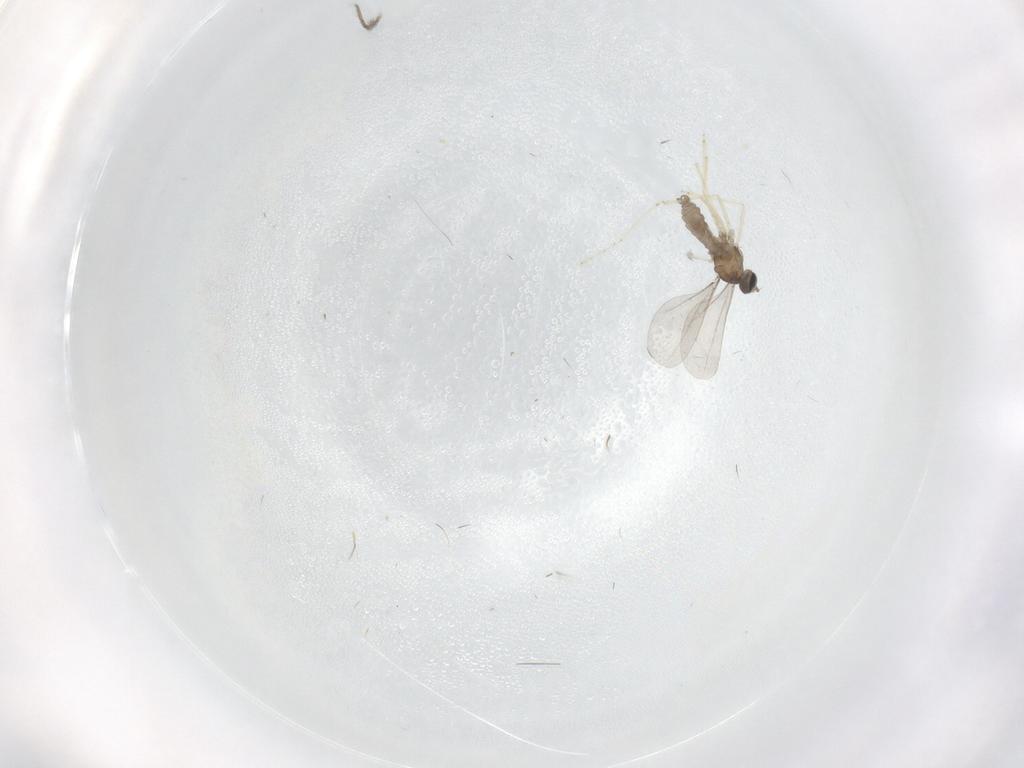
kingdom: Animalia
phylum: Arthropoda
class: Insecta
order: Diptera
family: Cecidomyiidae
